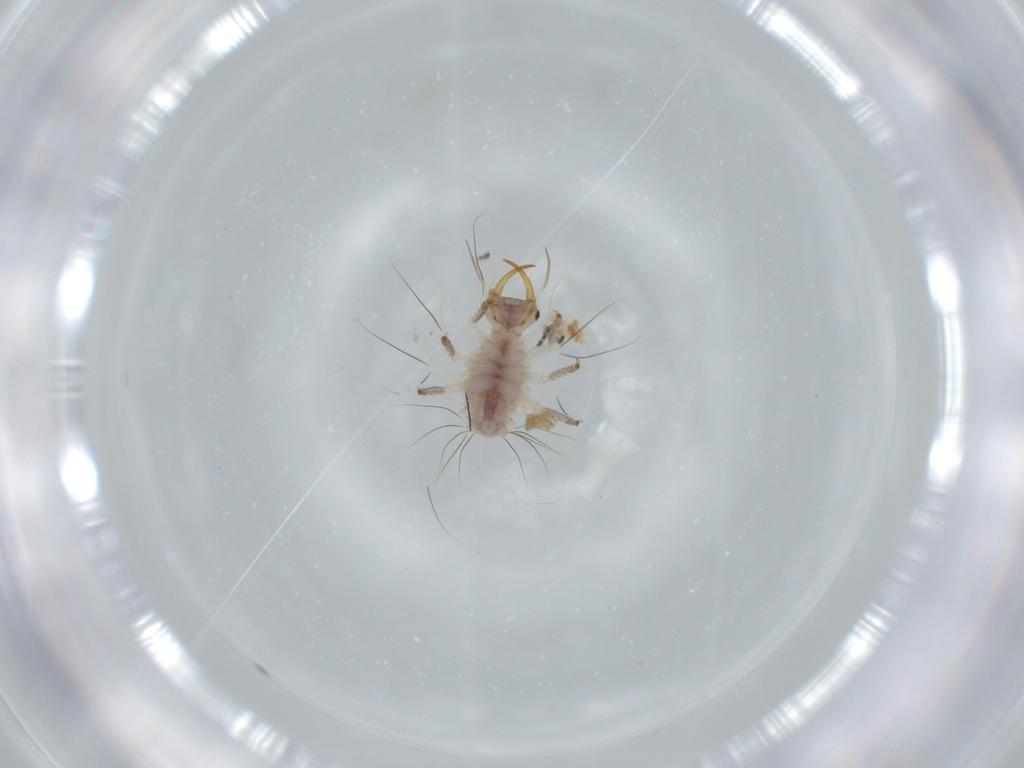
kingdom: Animalia
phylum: Arthropoda
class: Insecta
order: Neuroptera
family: Chrysopidae
